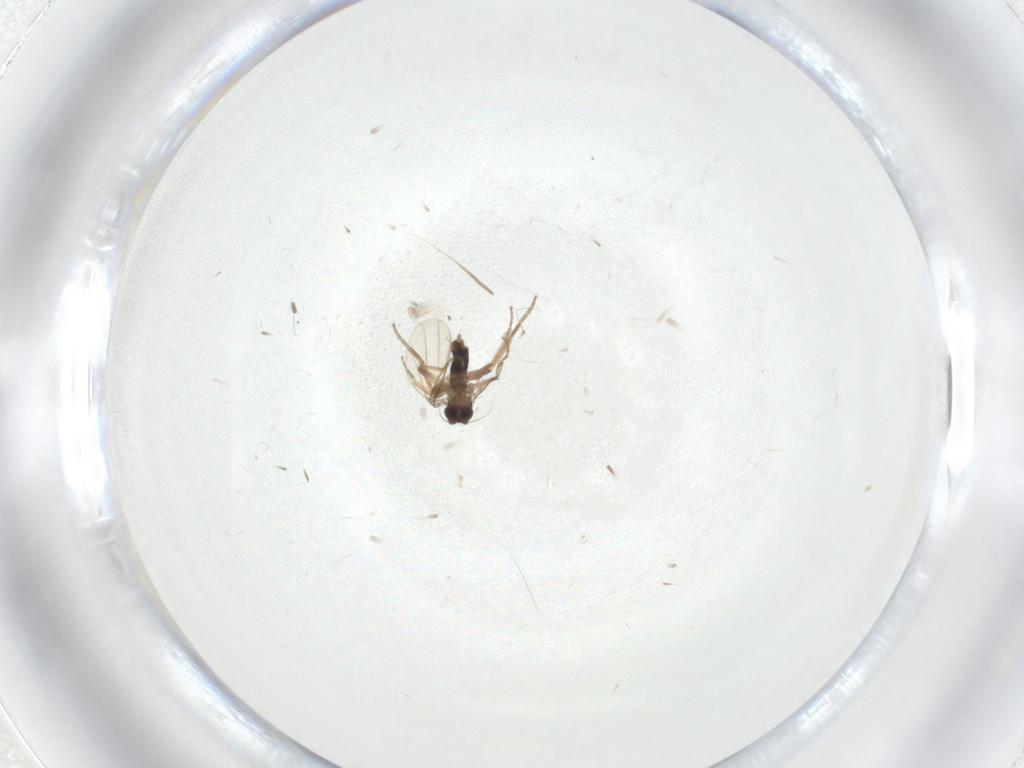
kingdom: Animalia
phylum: Arthropoda
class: Insecta
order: Diptera
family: Phoridae
